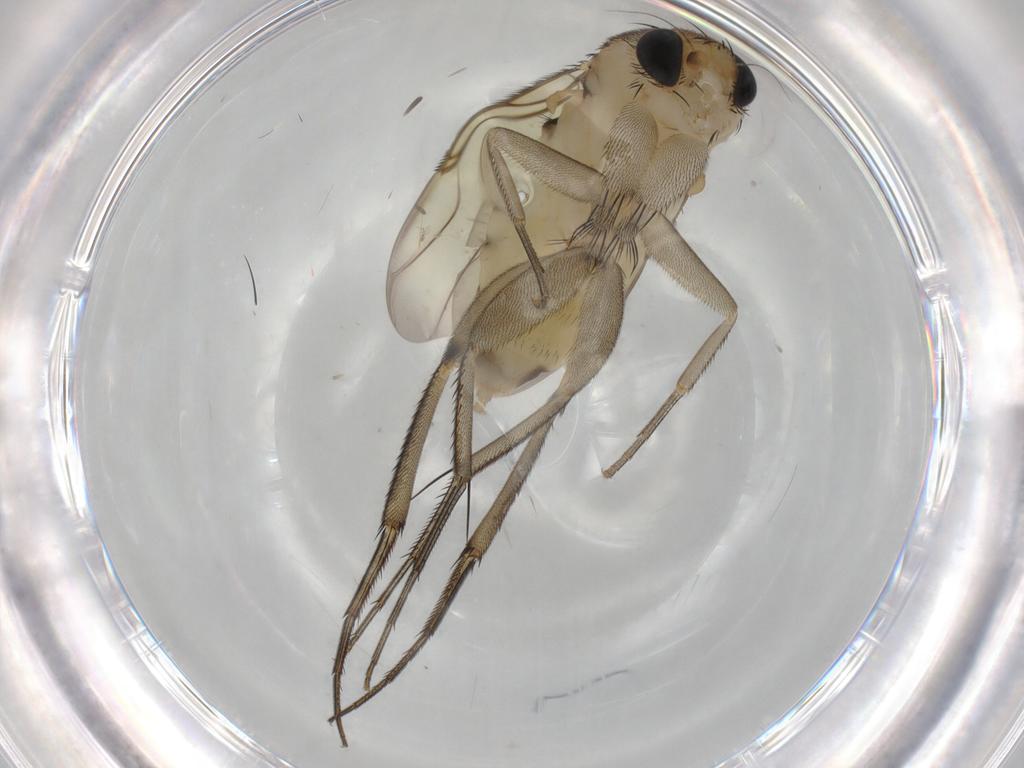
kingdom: Animalia
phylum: Arthropoda
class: Insecta
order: Diptera
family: Phoridae
